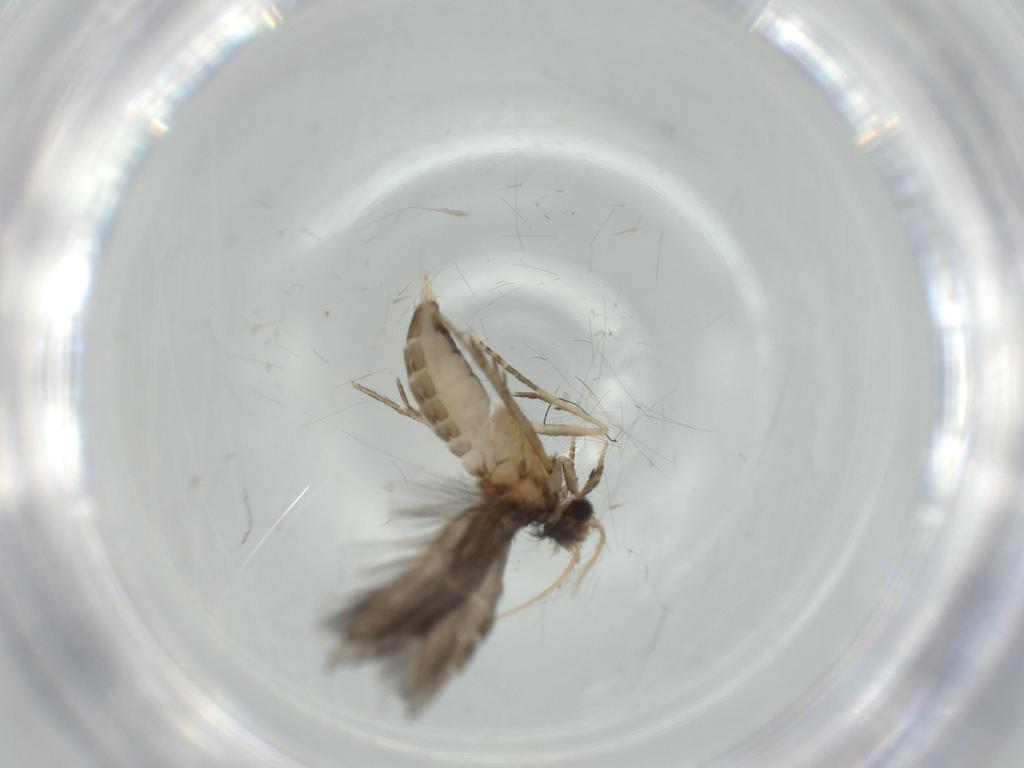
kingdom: Animalia
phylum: Arthropoda
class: Insecta
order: Trichoptera
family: Hydroptilidae
